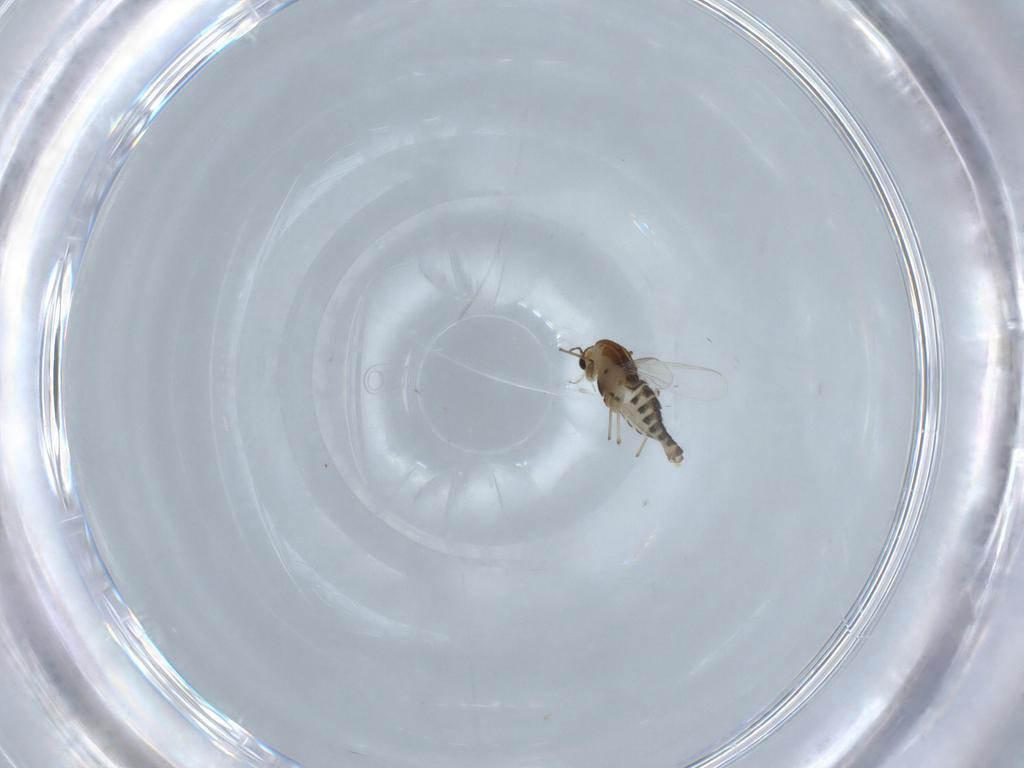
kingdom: Animalia
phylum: Arthropoda
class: Insecta
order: Diptera
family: Chironomidae
